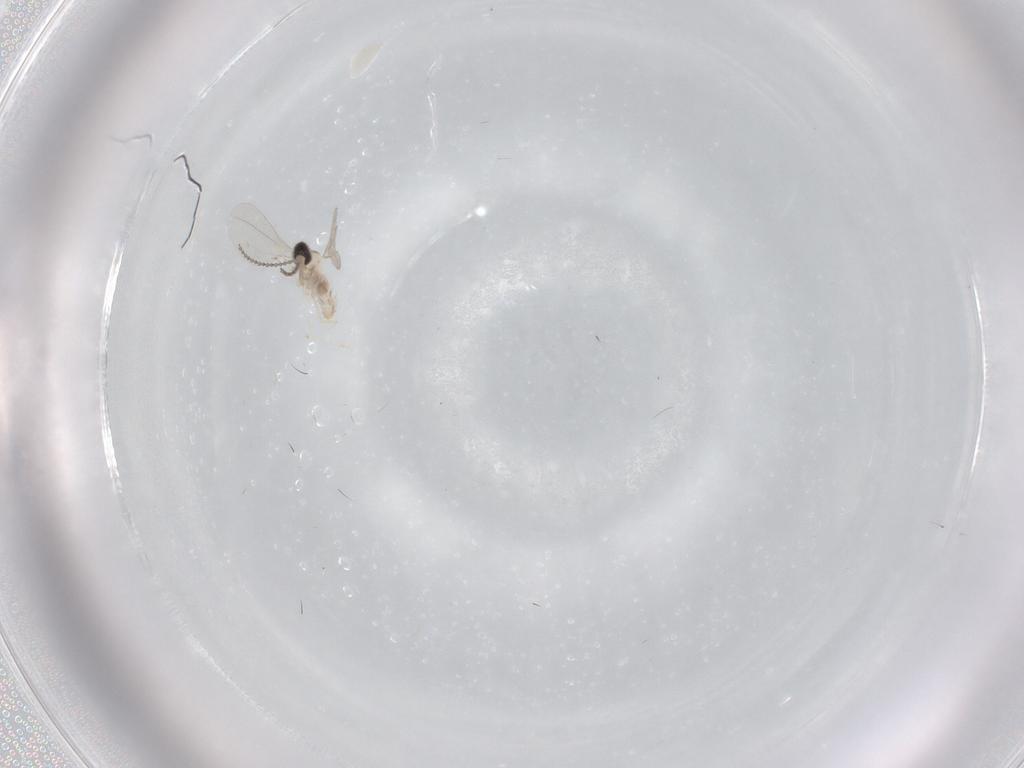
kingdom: Animalia
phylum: Arthropoda
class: Insecta
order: Diptera
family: Cecidomyiidae
